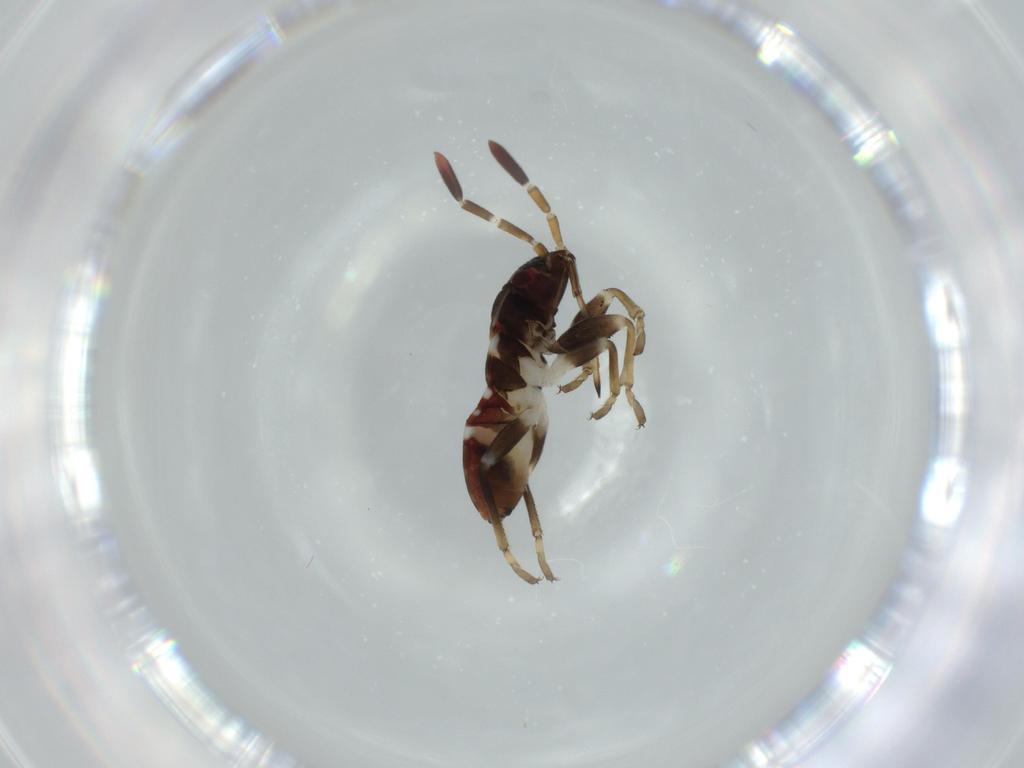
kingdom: Animalia
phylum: Arthropoda
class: Insecta
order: Hemiptera
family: Rhyparochromidae
